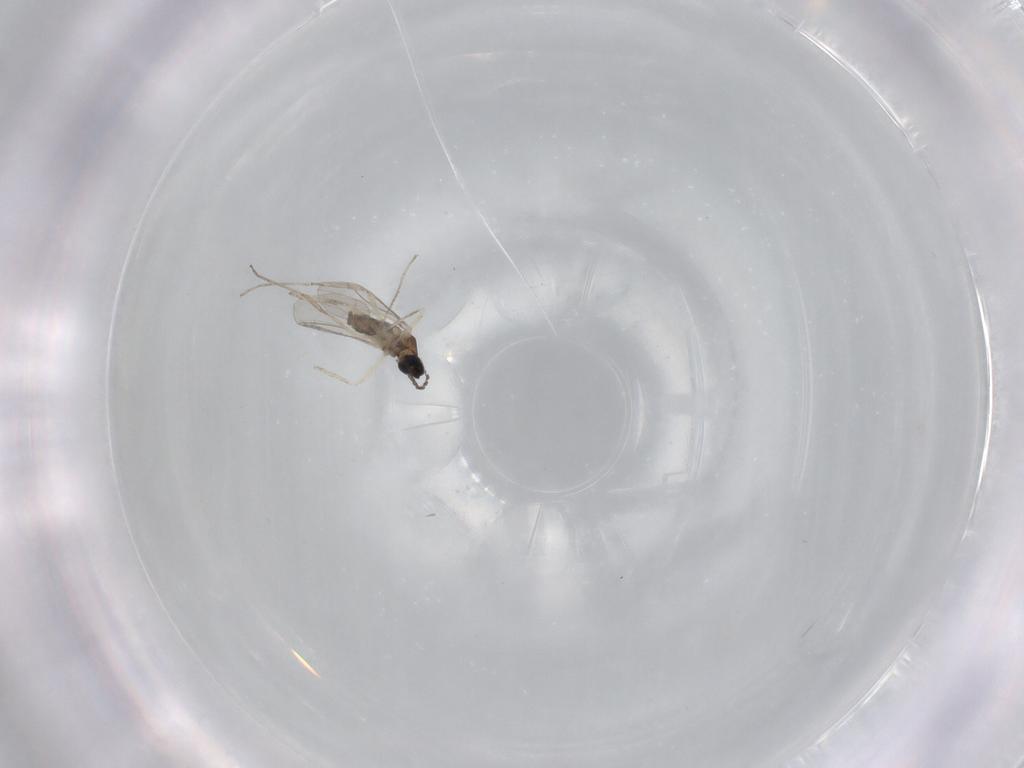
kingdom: Animalia
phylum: Arthropoda
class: Insecta
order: Diptera
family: Cecidomyiidae
